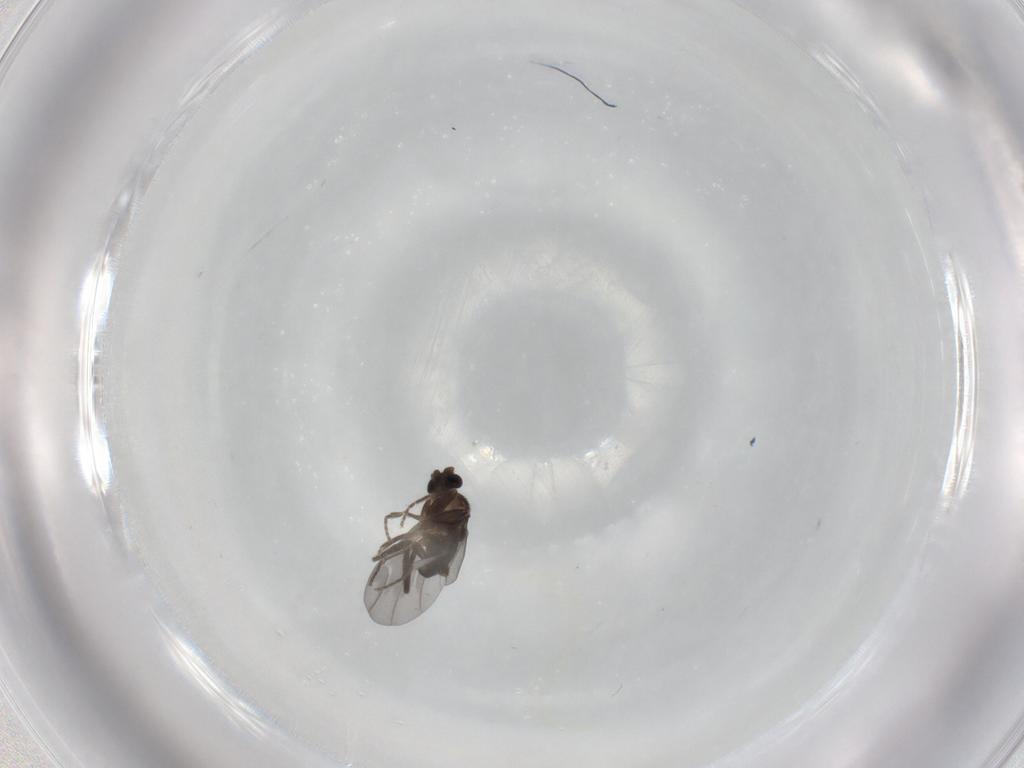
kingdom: Animalia
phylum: Arthropoda
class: Insecta
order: Diptera
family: Phoridae
